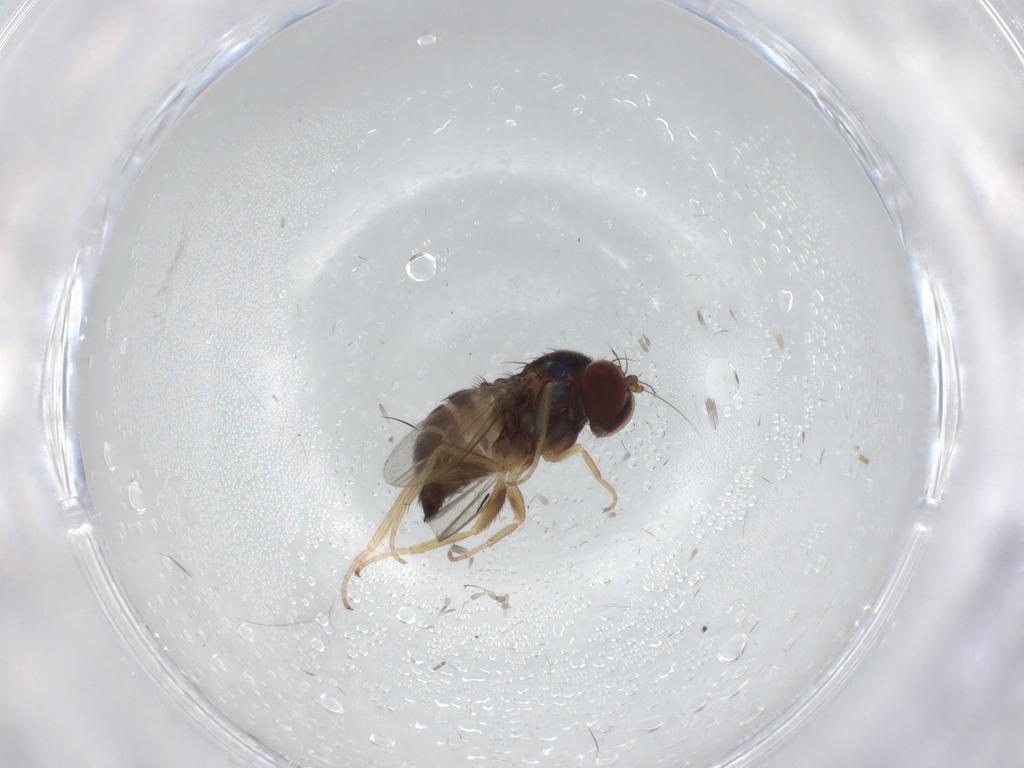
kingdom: Animalia
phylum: Arthropoda
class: Insecta
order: Diptera
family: Dolichopodidae
